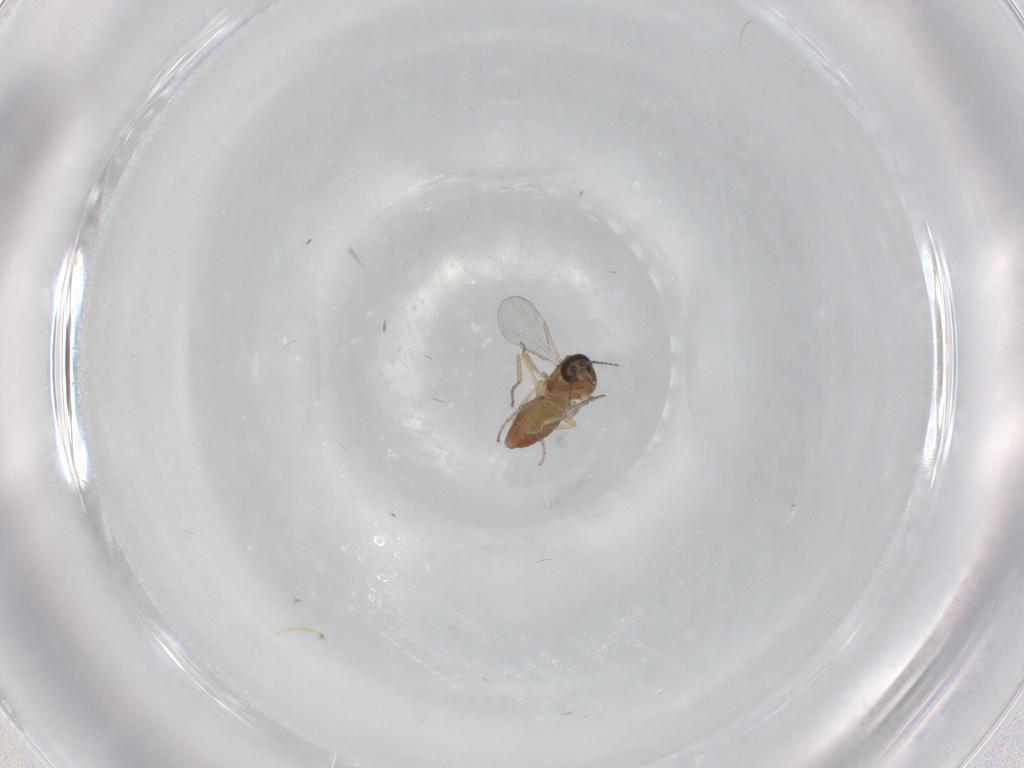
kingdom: Animalia
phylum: Arthropoda
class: Insecta
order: Diptera
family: Ceratopogonidae
